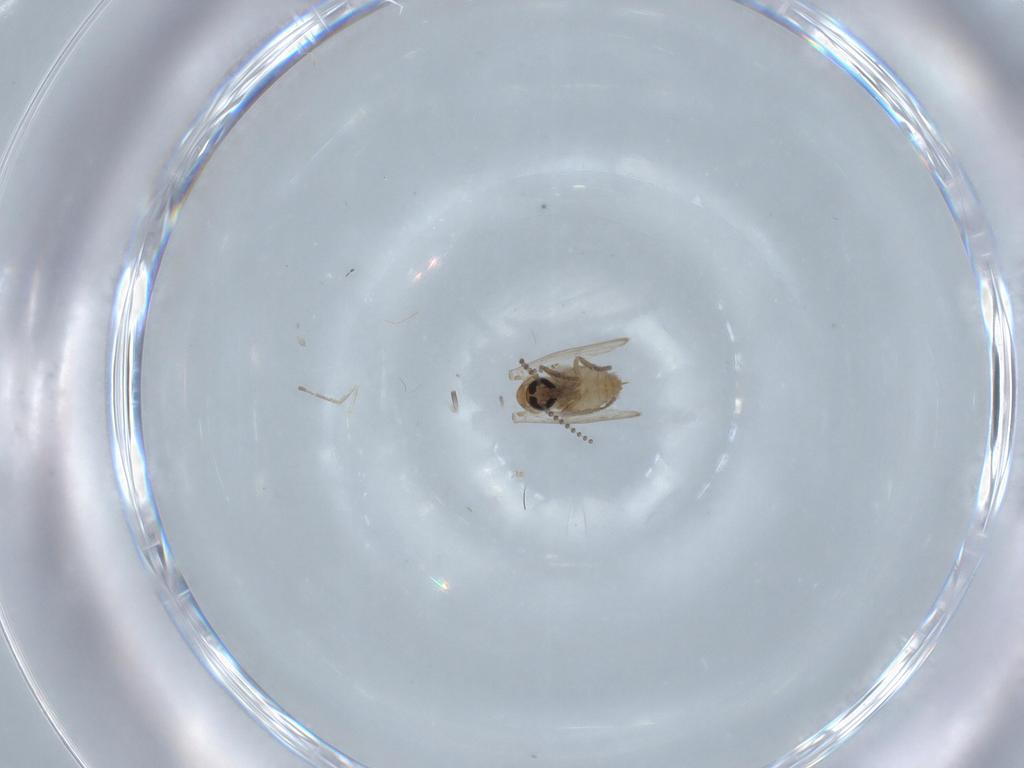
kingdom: Animalia
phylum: Arthropoda
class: Insecta
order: Diptera
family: Psychodidae
